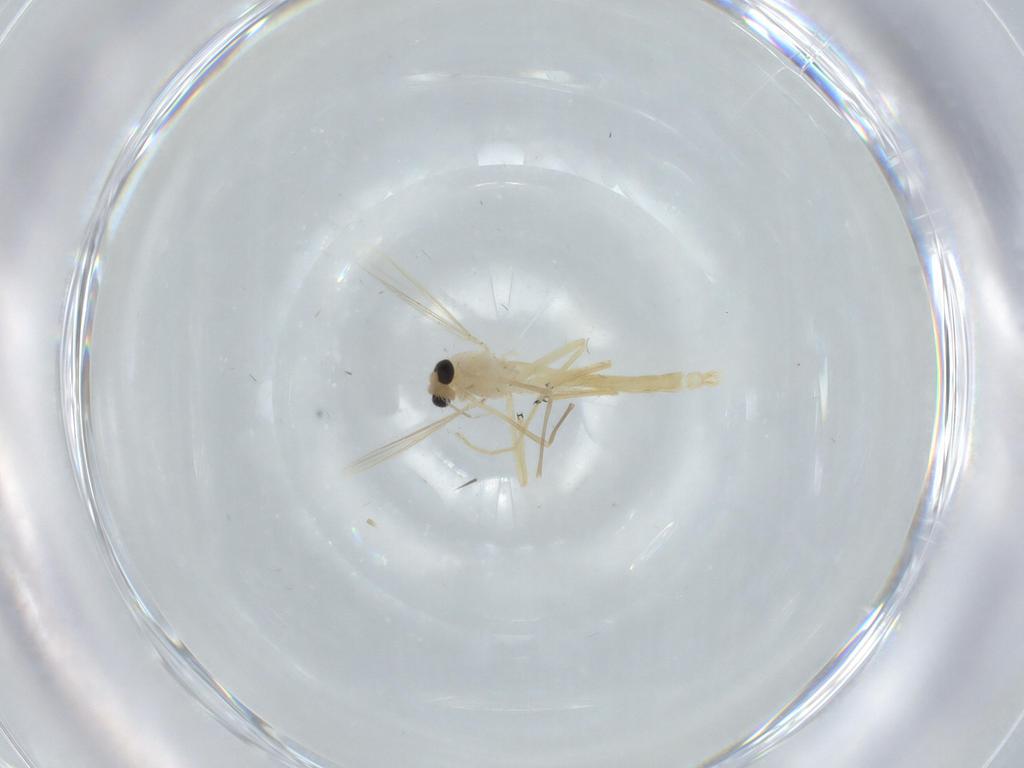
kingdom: Animalia
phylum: Arthropoda
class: Insecta
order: Diptera
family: Chironomidae
